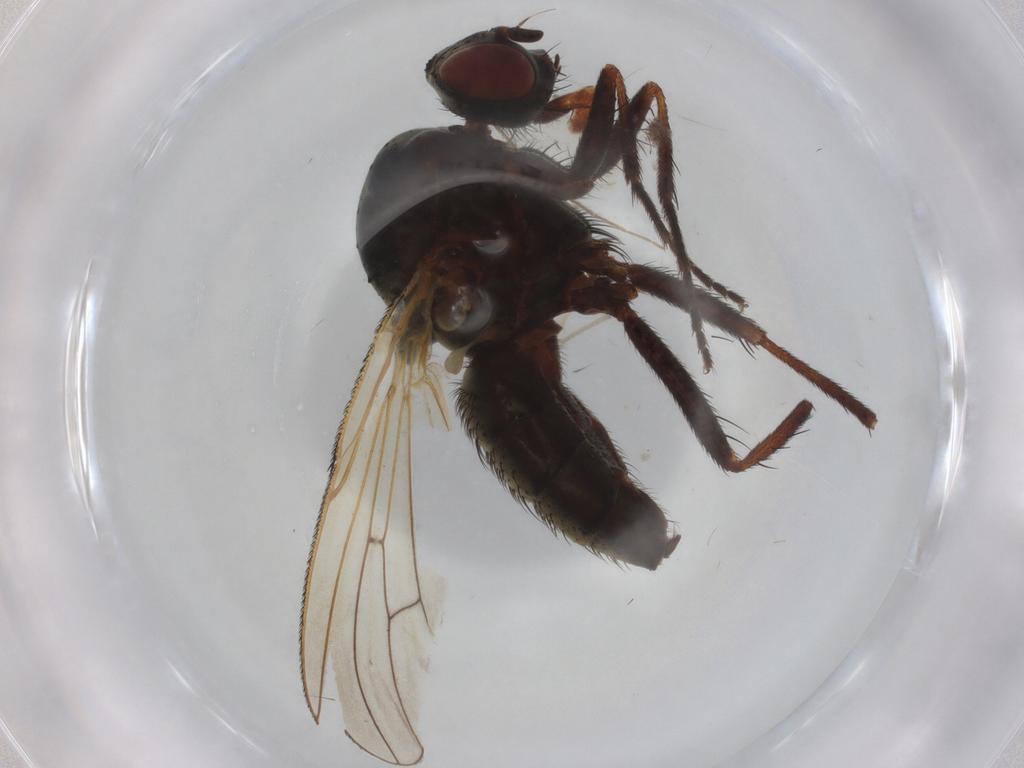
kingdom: Animalia
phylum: Arthropoda
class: Insecta
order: Diptera
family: Anthomyiidae
